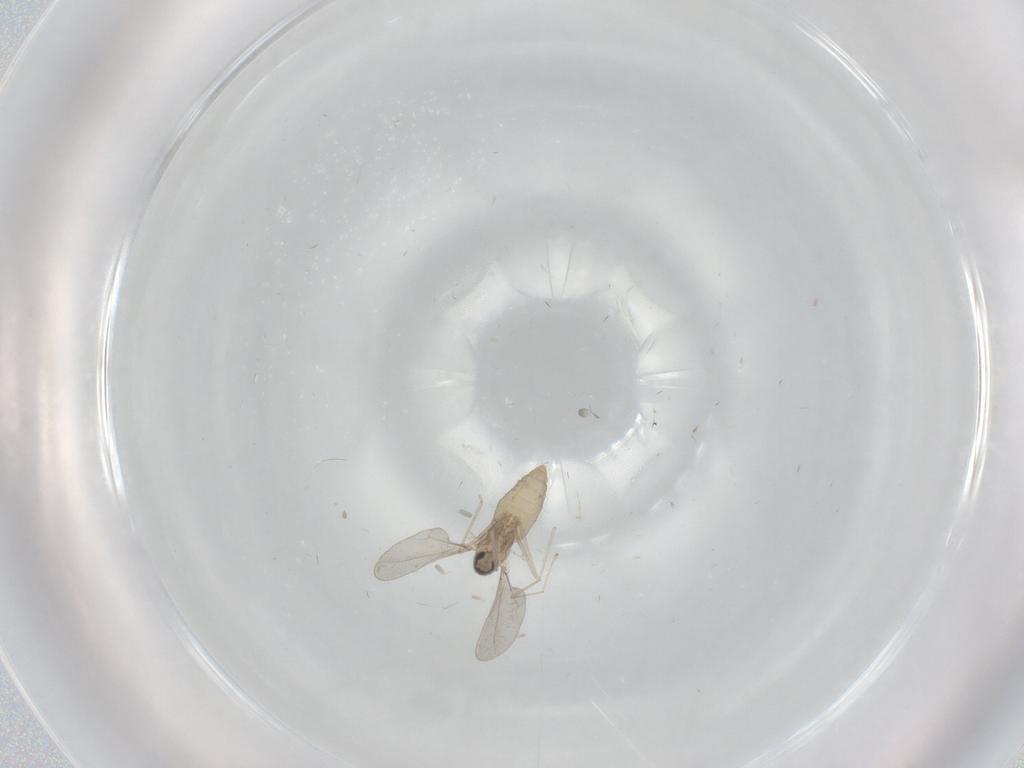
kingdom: Animalia
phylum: Arthropoda
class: Insecta
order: Diptera
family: Cecidomyiidae
